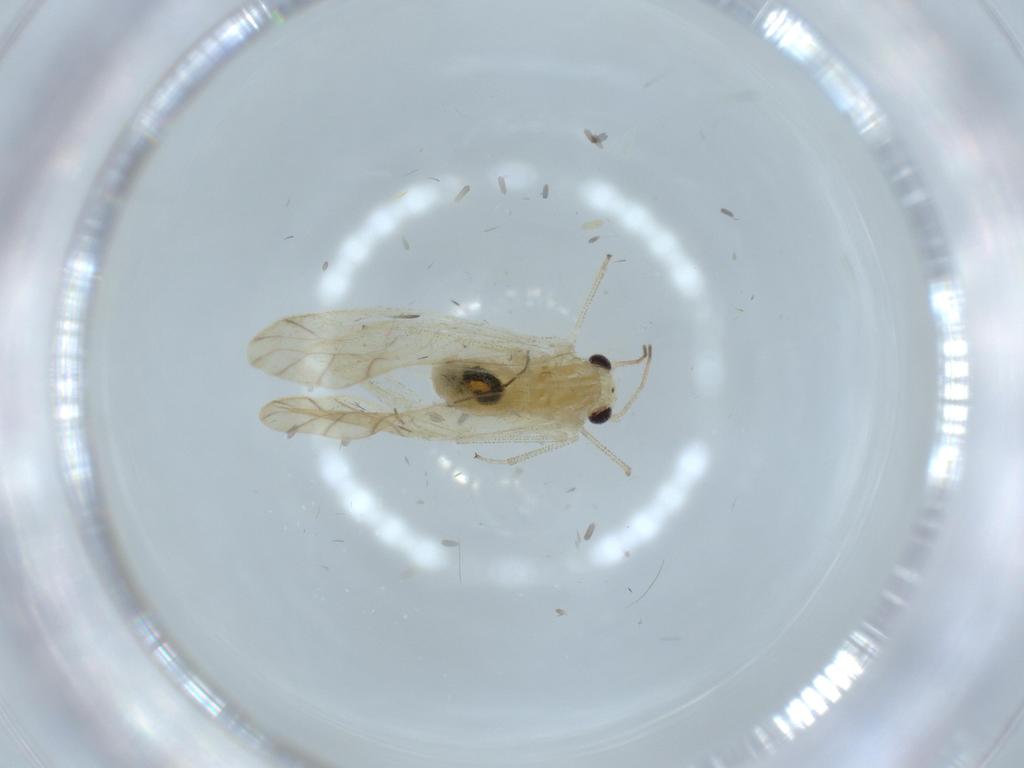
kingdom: Animalia
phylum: Arthropoda
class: Insecta
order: Psocodea
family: Caeciliusidae
